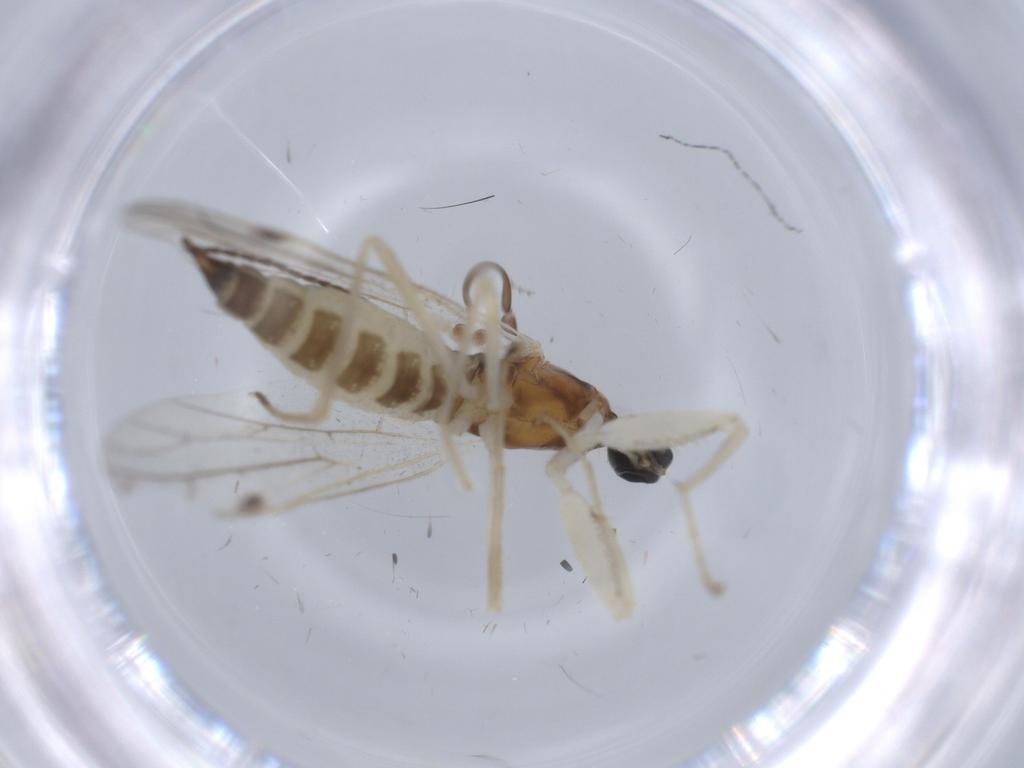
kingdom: Animalia
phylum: Arthropoda
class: Insecta
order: Diptera
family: Empididae
